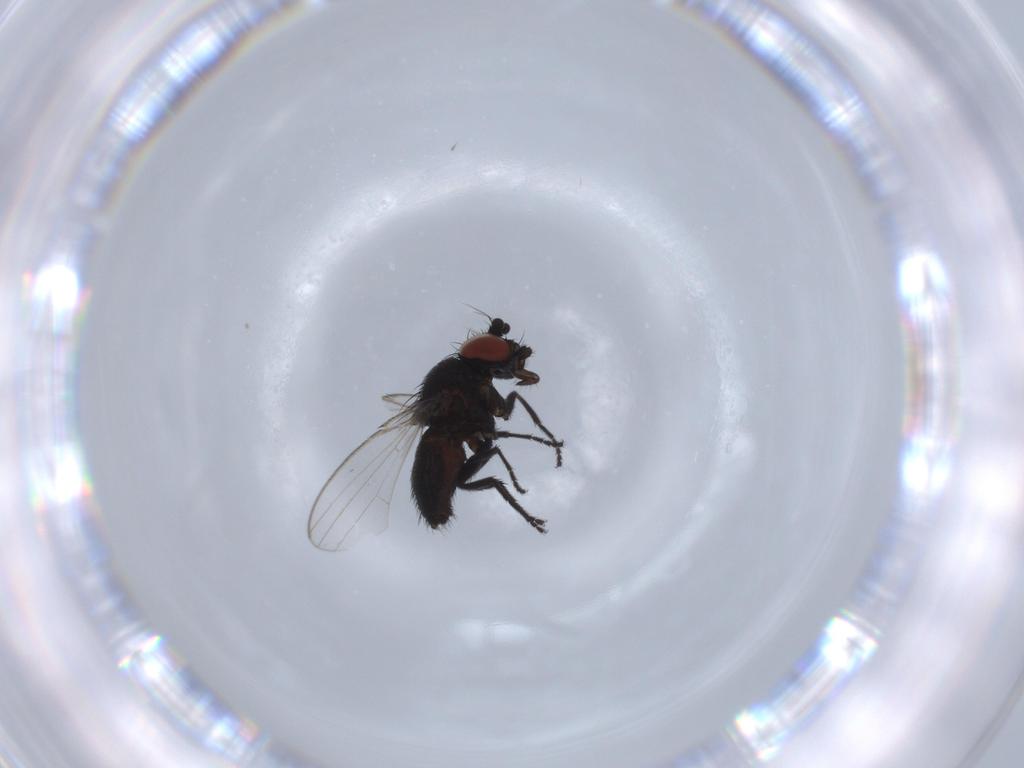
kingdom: Animalia
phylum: Arthropoda
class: Insecta
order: Diptera
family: Milichiidae
